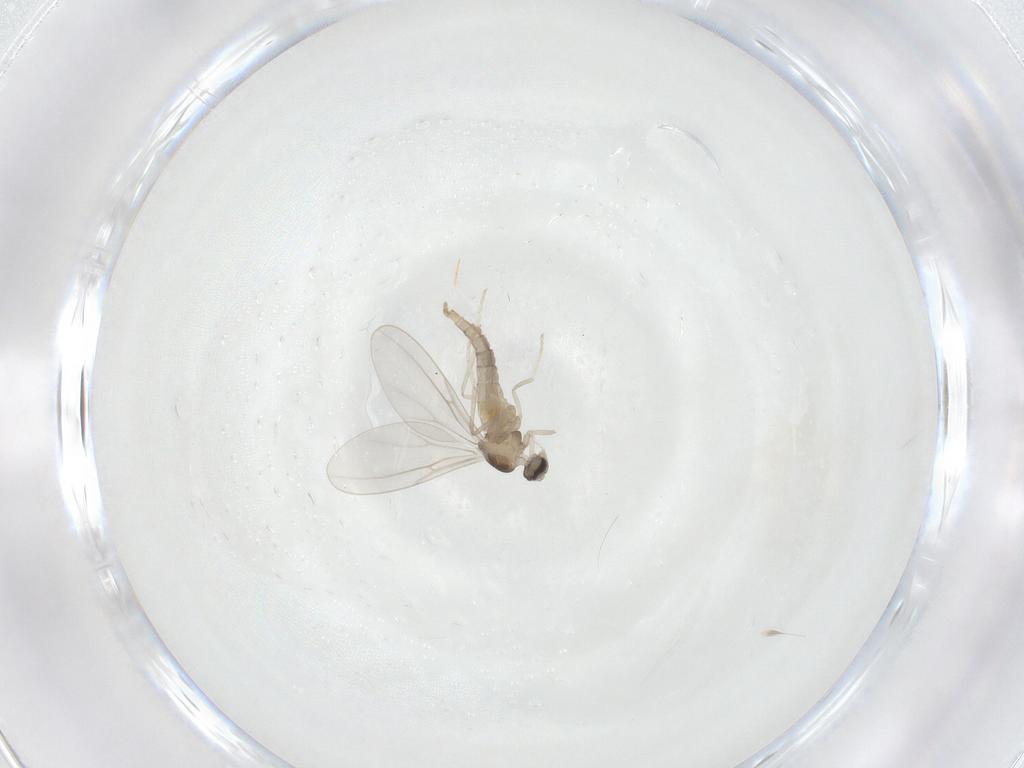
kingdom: Animalia
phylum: Arthropoda
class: Insecta
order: Diptera
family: Cecidomyiidae
